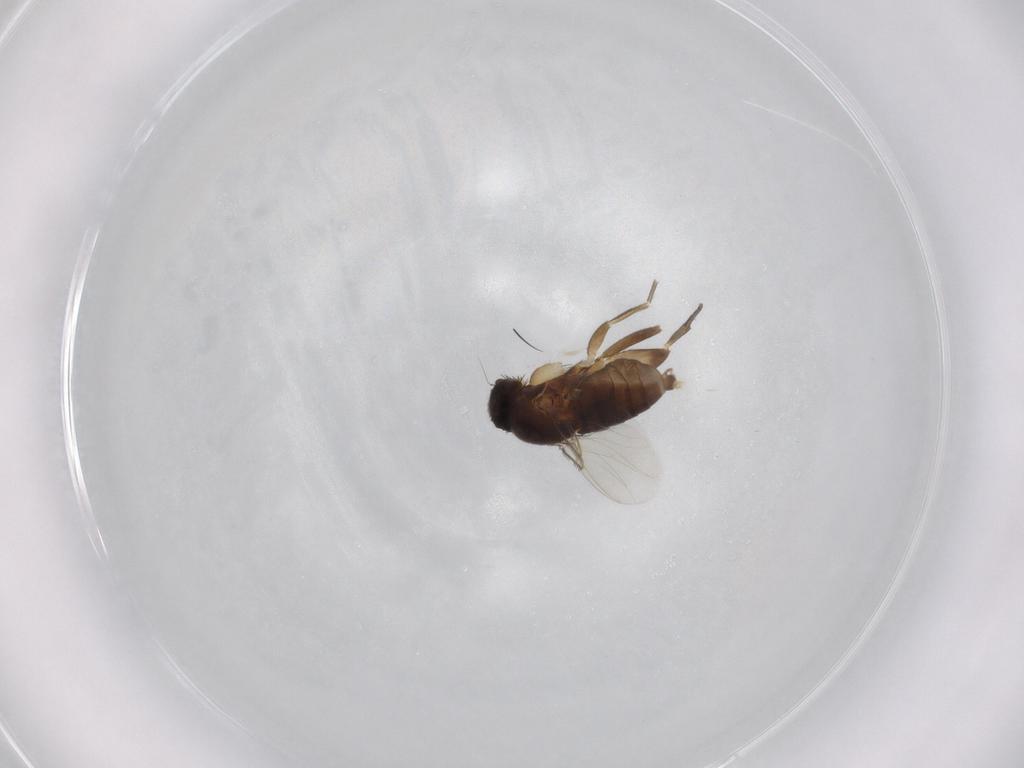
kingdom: Animalia
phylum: Arthropoda
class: Insecta
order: Diptera
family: Phoridae
